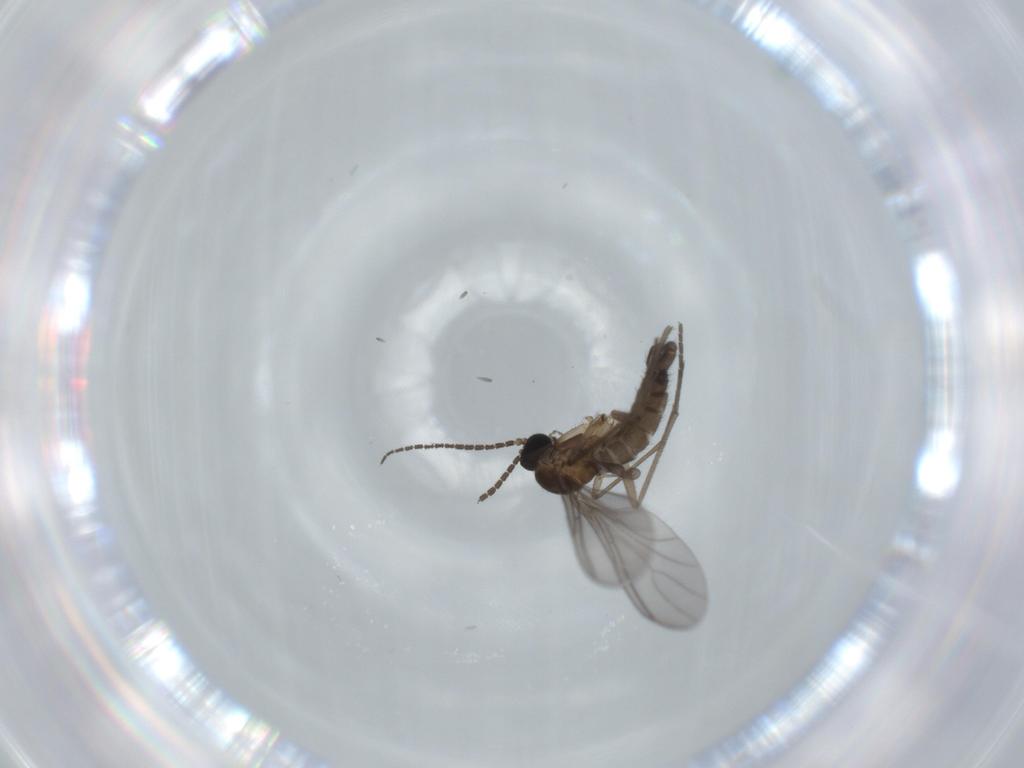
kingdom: Animalia
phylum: Arthropoda
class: Insecta
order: Diptera
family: Sciaridae
